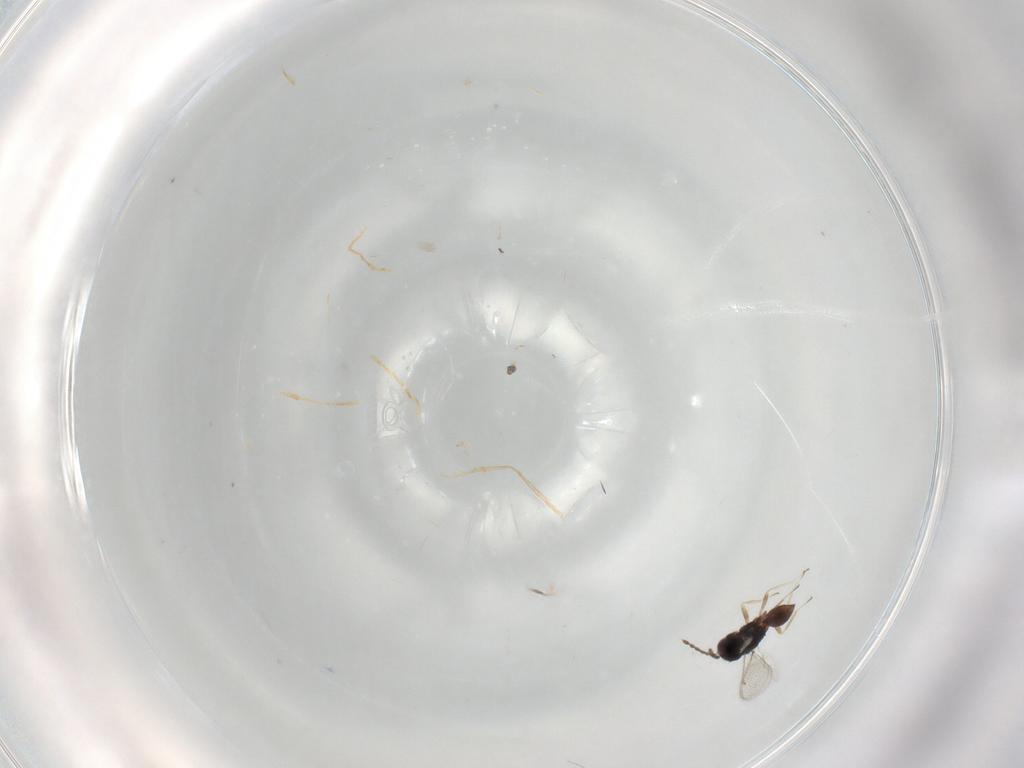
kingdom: Animalia
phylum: Arthropoda
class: Insecta
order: Hymenoptera
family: Eulophidae
